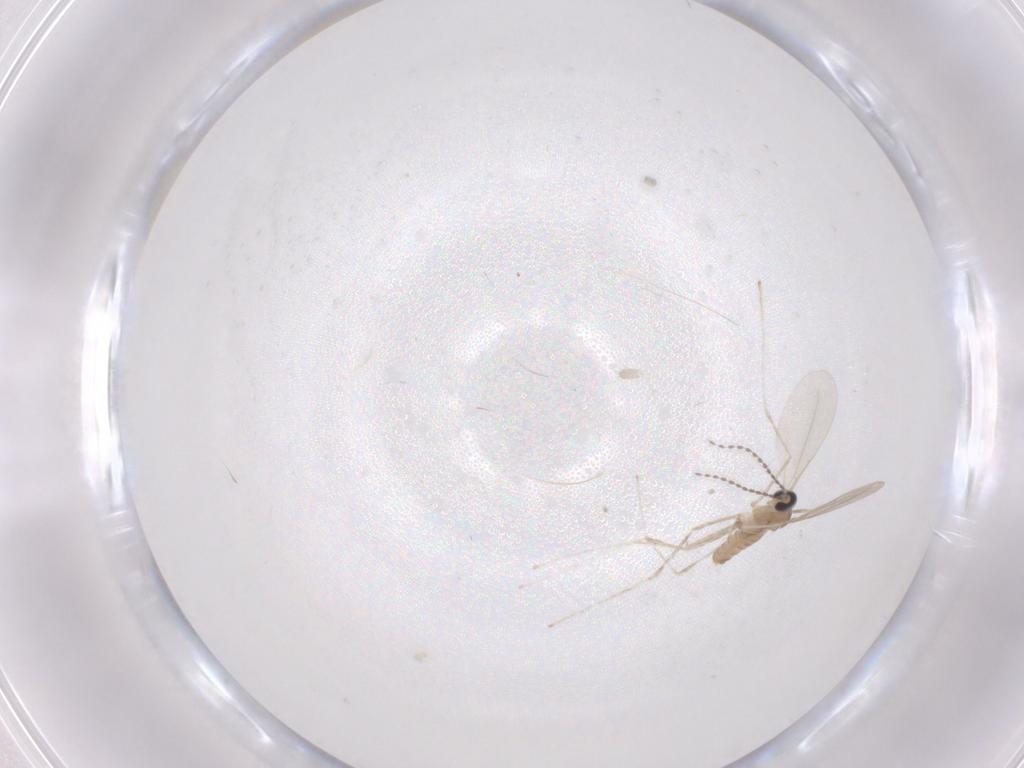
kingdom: Animalia
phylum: Arthropoda
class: Insecta
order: Diptera
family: Cecidomyiidae
